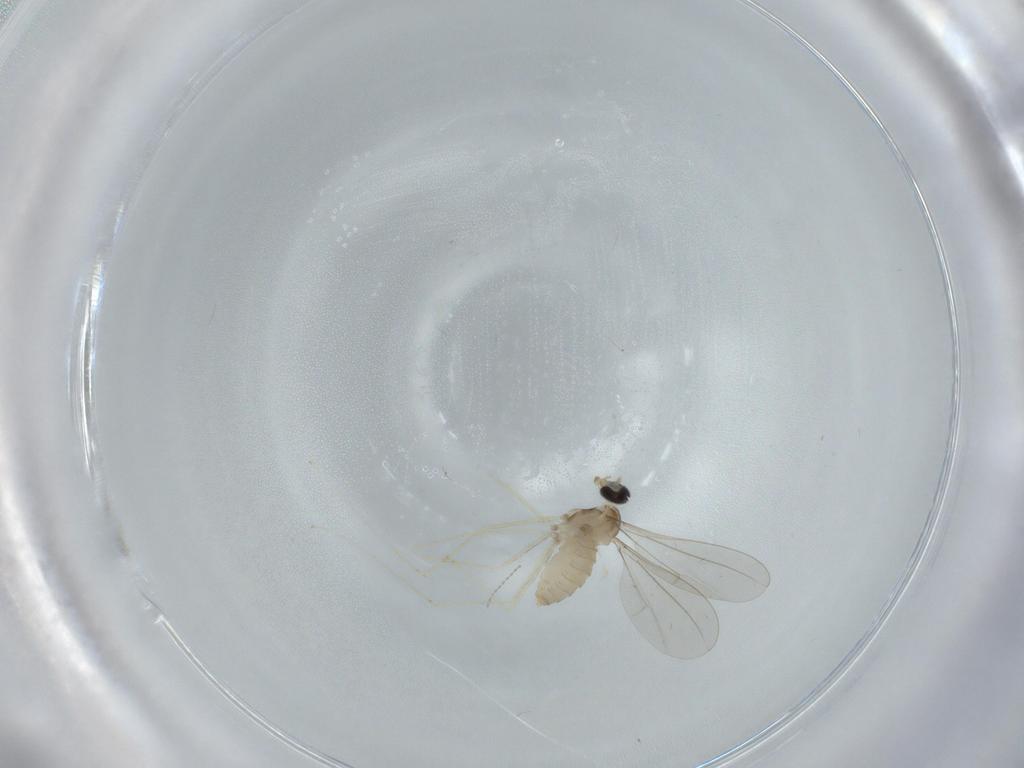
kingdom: Animalia
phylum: Arthropoda
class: Insecta
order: Diptera
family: Cecidomyiidae
